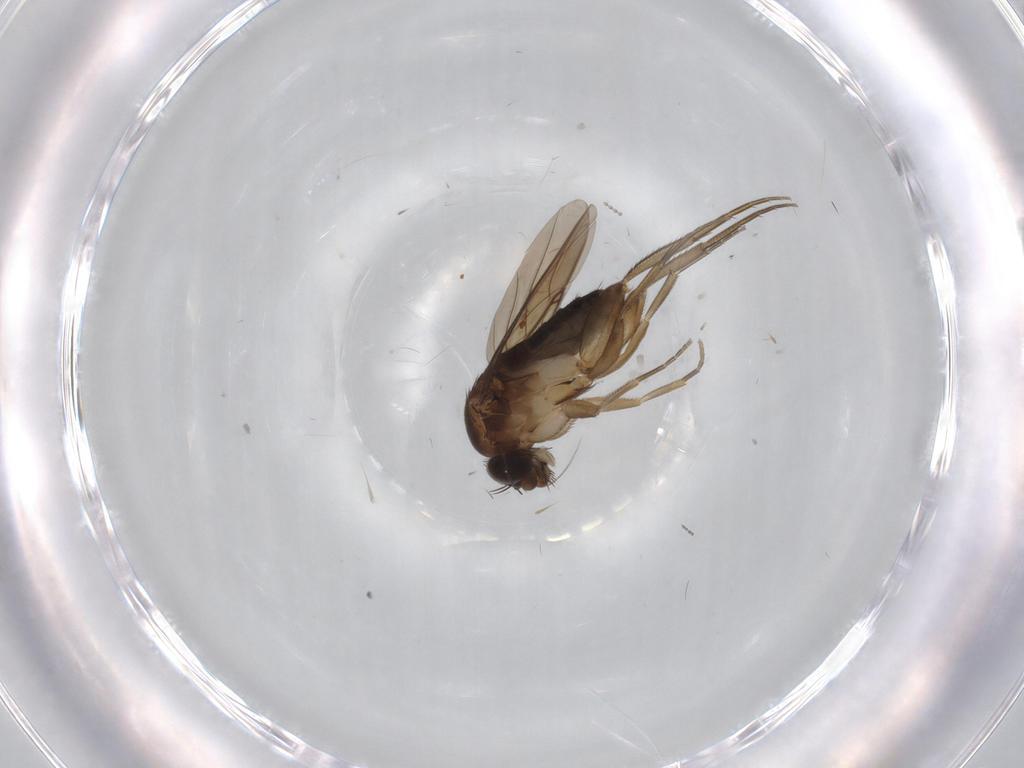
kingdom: Animalia
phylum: Arthropoda
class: Insecta
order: Diptera
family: Phoridae
